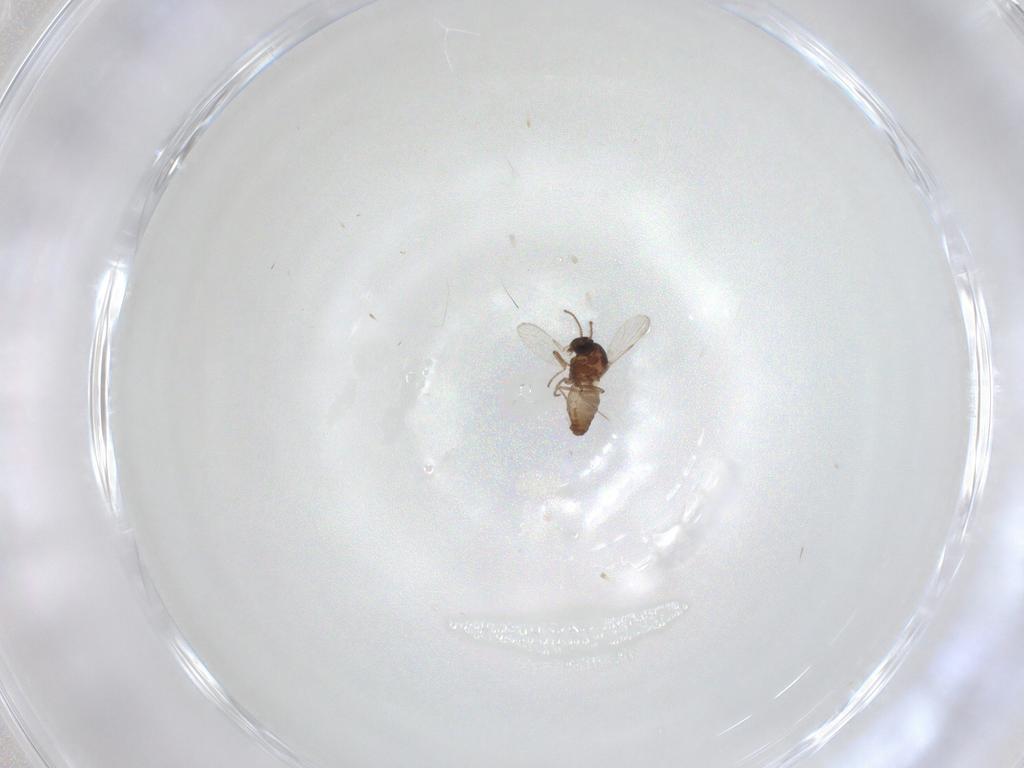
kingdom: Animalia
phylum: Arthropoda
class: Insecta
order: Diptera
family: Ceratopogonidae
